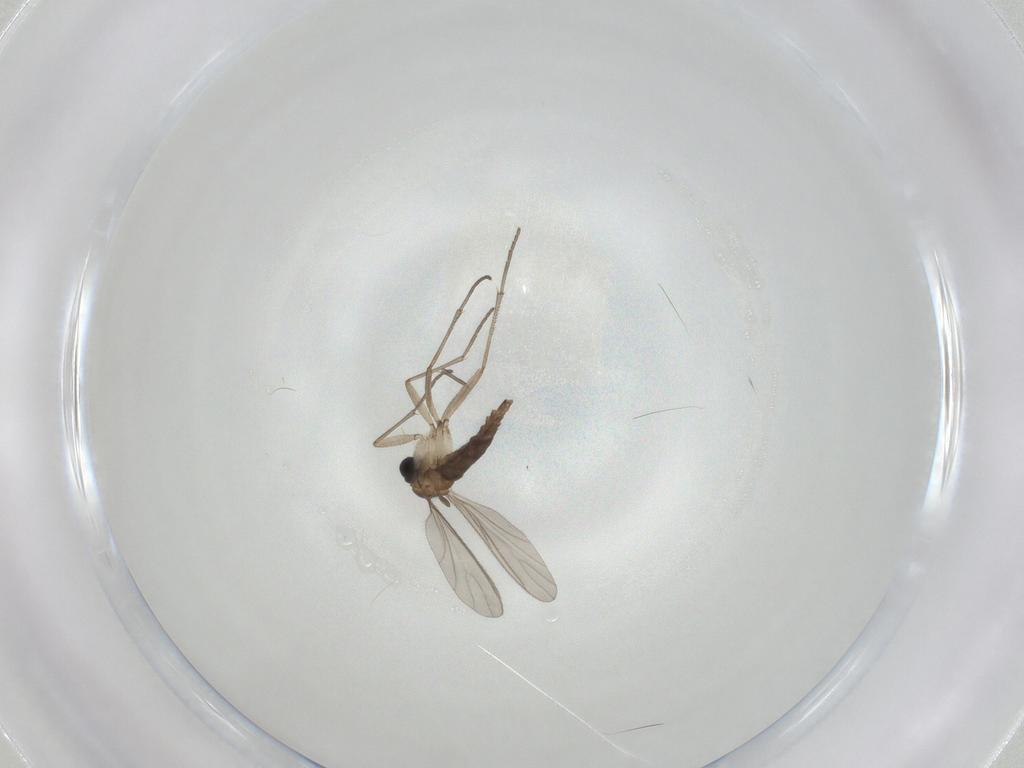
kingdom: Animalia
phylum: Arthropoda
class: Insecta
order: Diptera
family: Sciaridae
